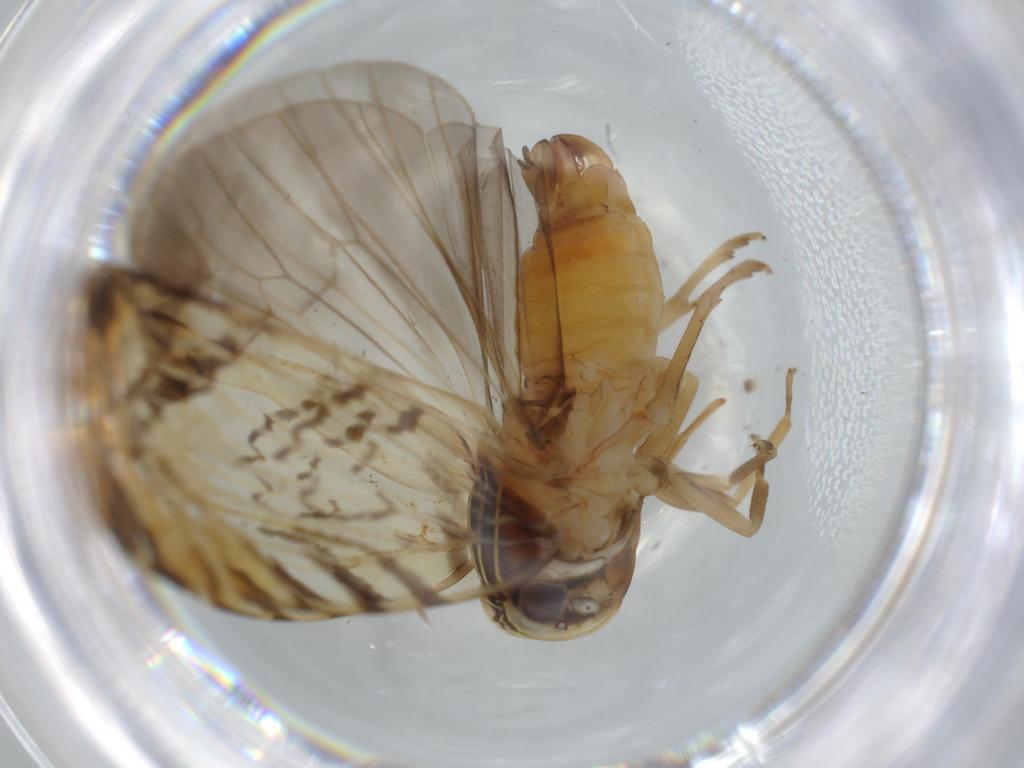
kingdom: Animalia
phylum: Arthropoda
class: Insecta
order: Hemiptera
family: Cixiidae
